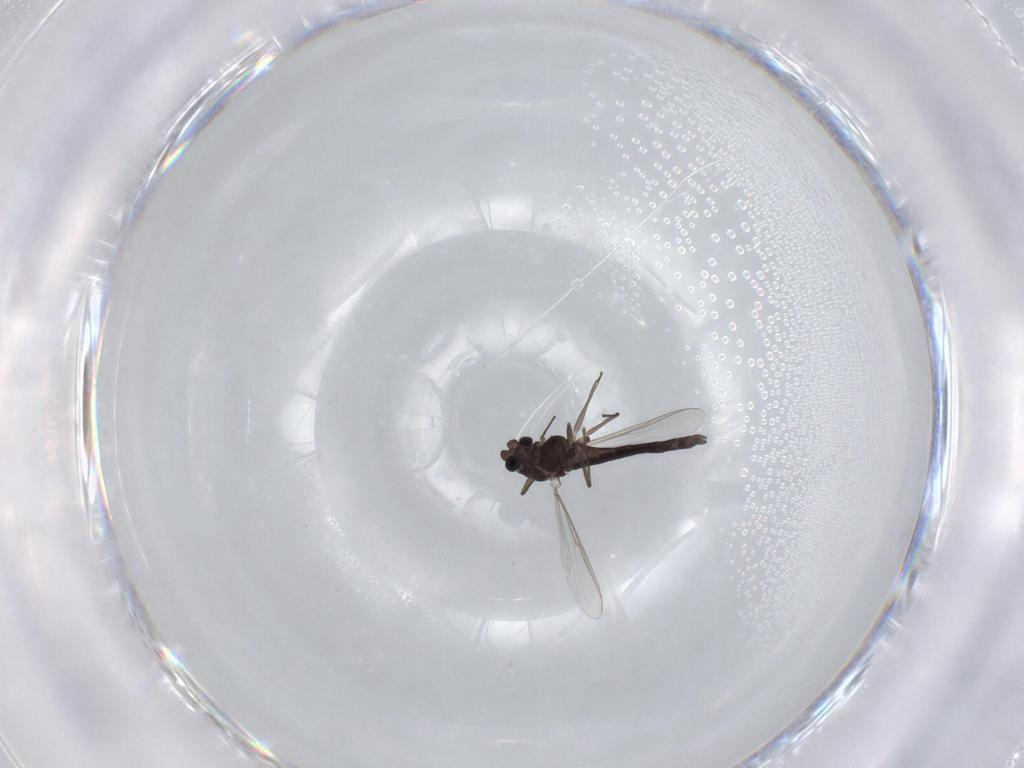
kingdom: Animalia
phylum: Arthropoda
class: Insecta
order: Diptera
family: Chironomidae
